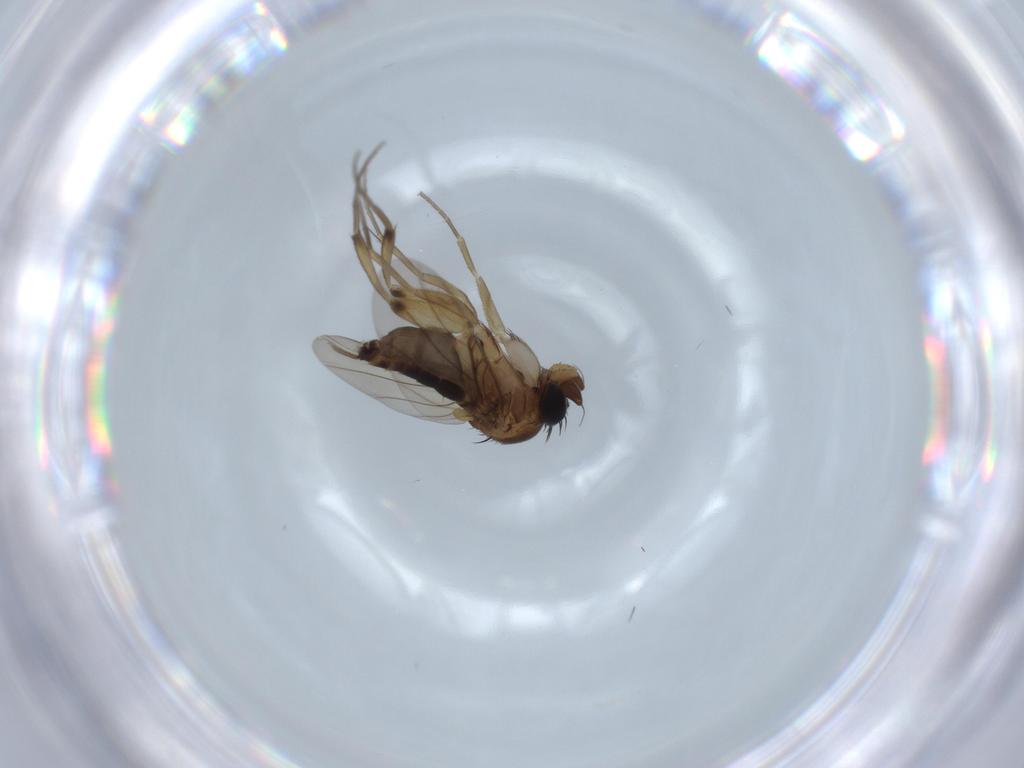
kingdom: Animalia
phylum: Arthropoda
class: Insecta
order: Diptera
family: Phoridae
